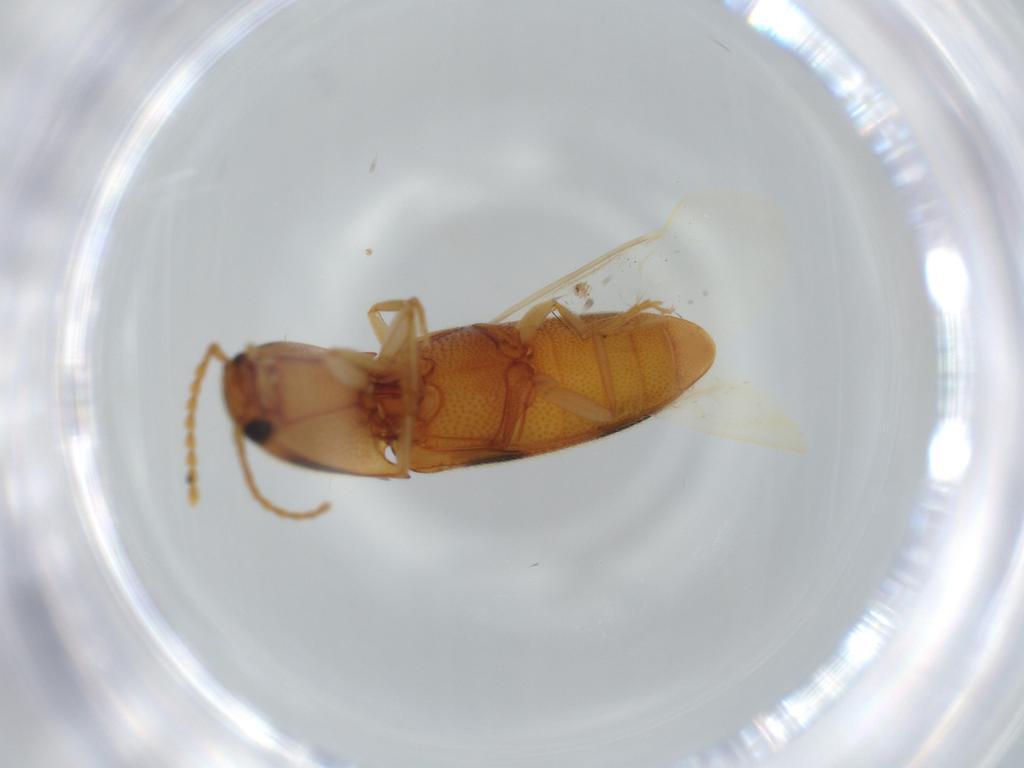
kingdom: Animalia
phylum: Arthropoda
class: Insecta
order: Coleoptera
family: Elateridae
